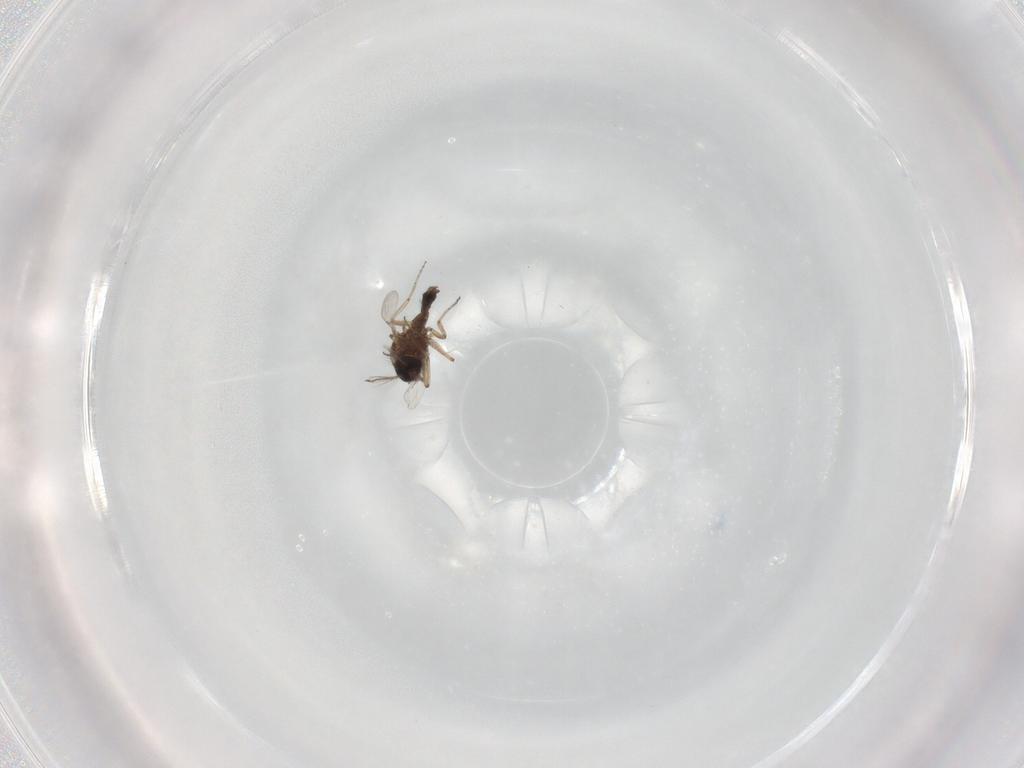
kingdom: Animalia
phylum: Arthropoda
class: Insecta
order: Diptera
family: Ceratopogonidae
